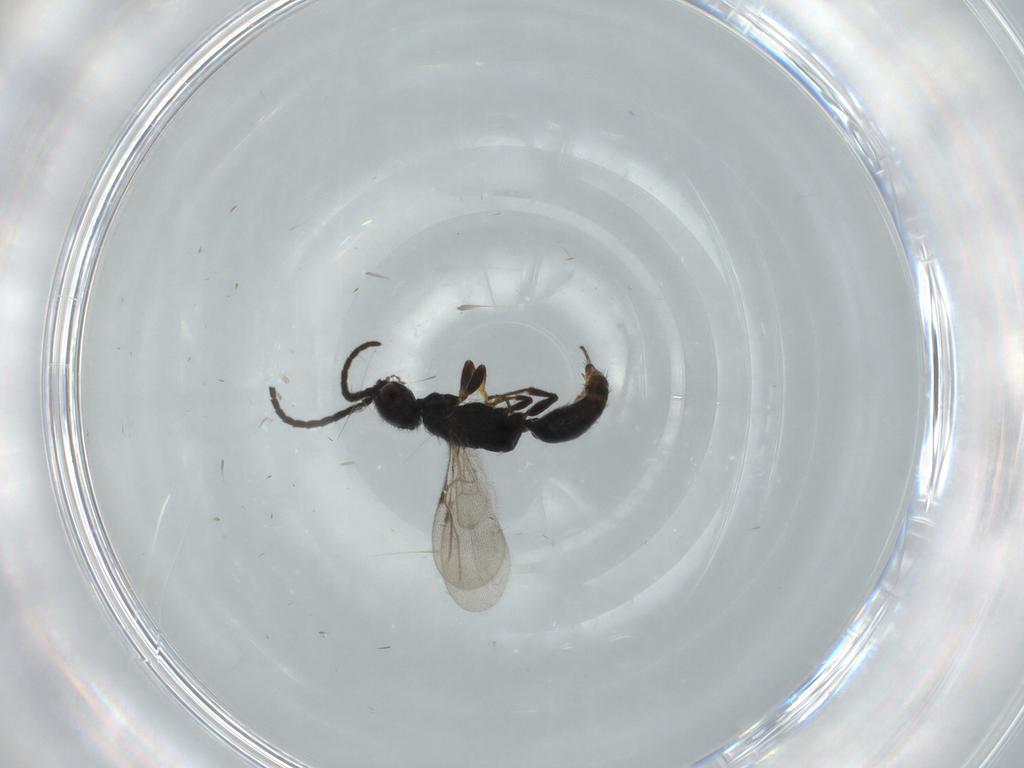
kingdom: Animalia
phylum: Arthropoda
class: Insecta
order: Hymenoptera
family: Bethylidae
